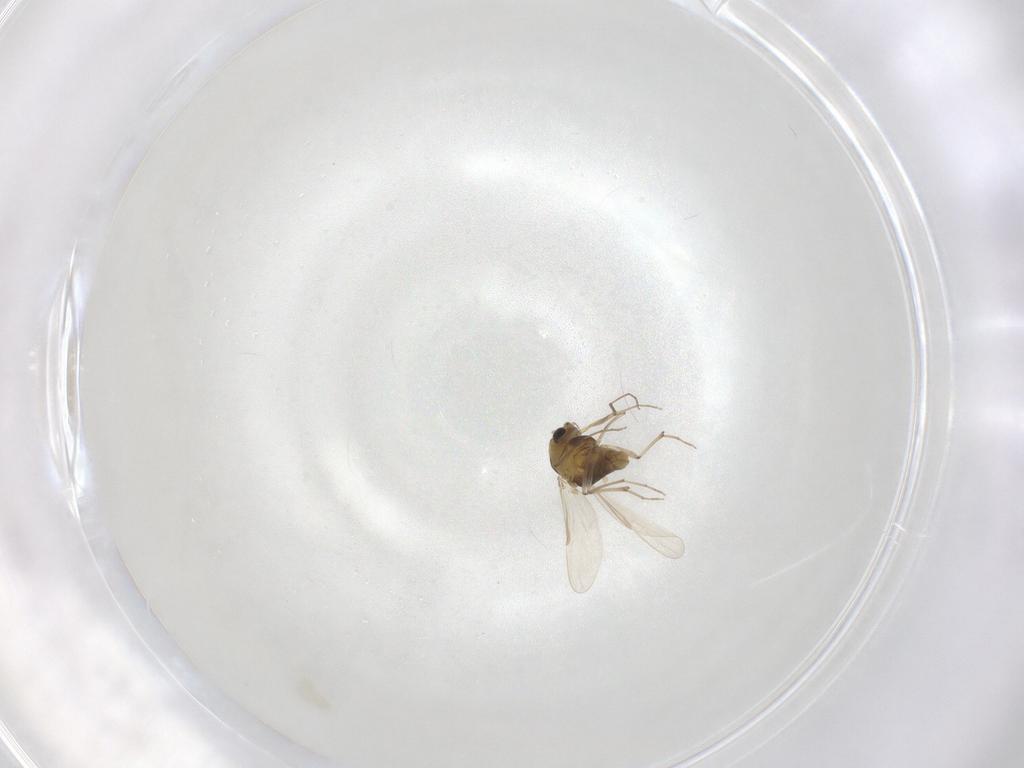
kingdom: Animalia
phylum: Arthropoda
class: Insecta
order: Diptera
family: Chironomidae
